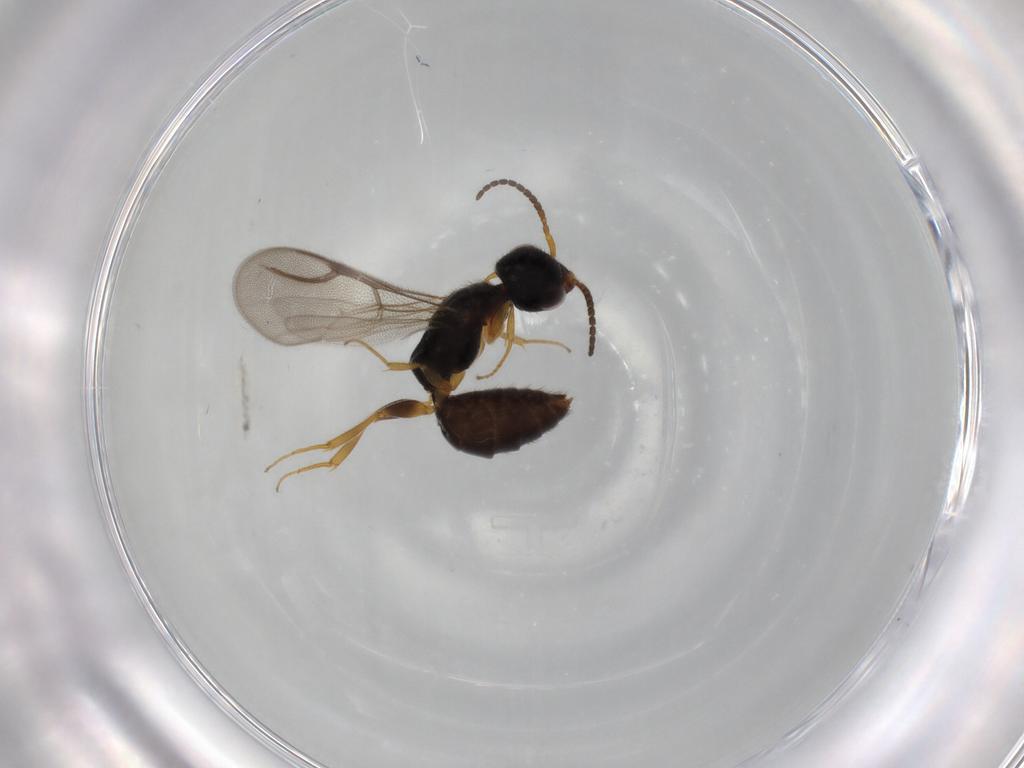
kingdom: Animalia
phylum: Arthropoda
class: Insecta
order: Hymenoptera
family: Bethylidae
